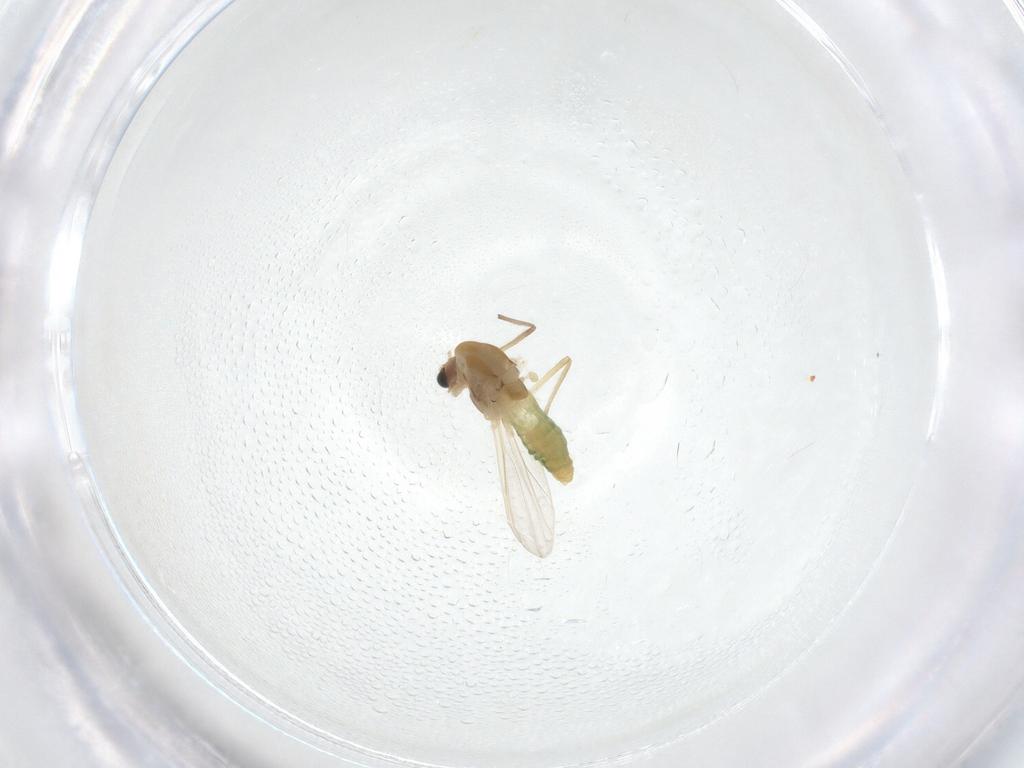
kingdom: Animalia
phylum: Arthropoda
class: Insecta
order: Diptera
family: Chironomidae
